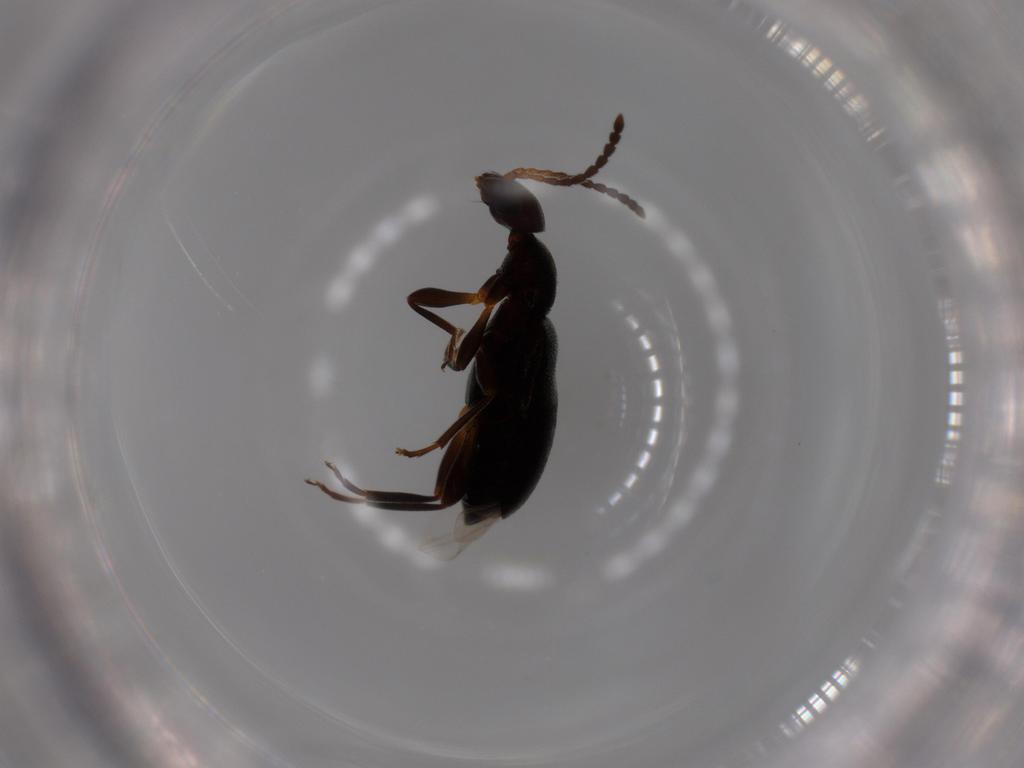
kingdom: Animalia
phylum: Arthropoda
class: Insecta
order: Coleoptera
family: Anthicidae
